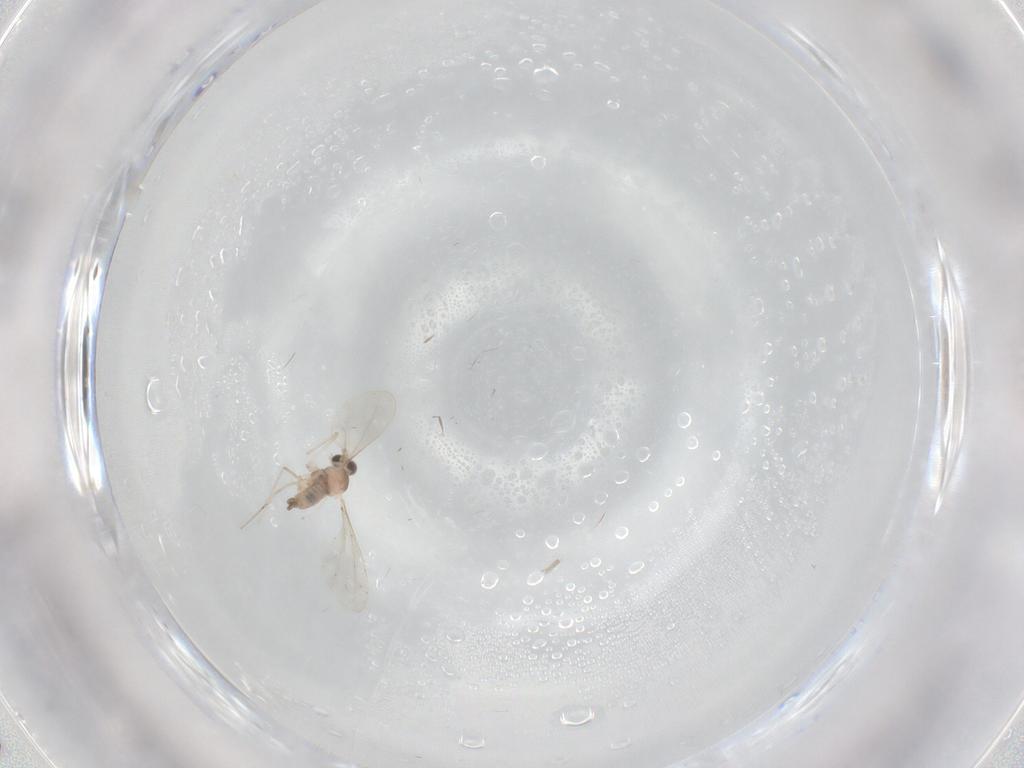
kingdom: Animalia
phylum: Arthropoda
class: Insecta
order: Diptera
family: Cecidomyiidae
